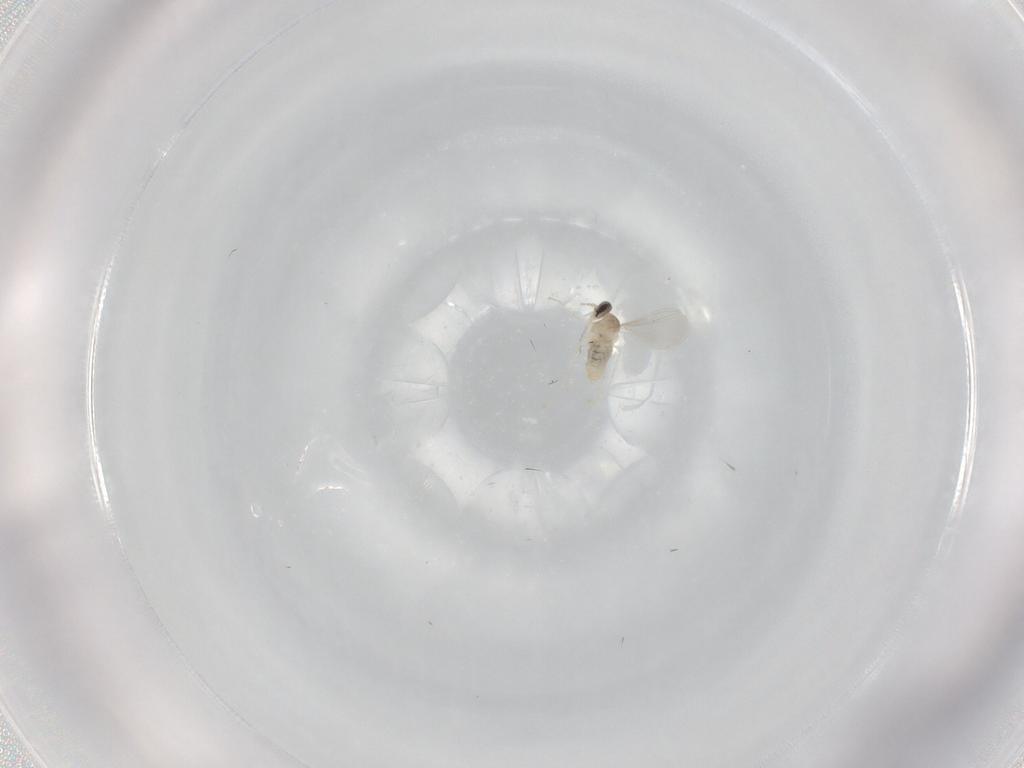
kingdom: Animalia
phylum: Arthropoda
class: Insecta
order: Diptera
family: Cecidomyiidae
